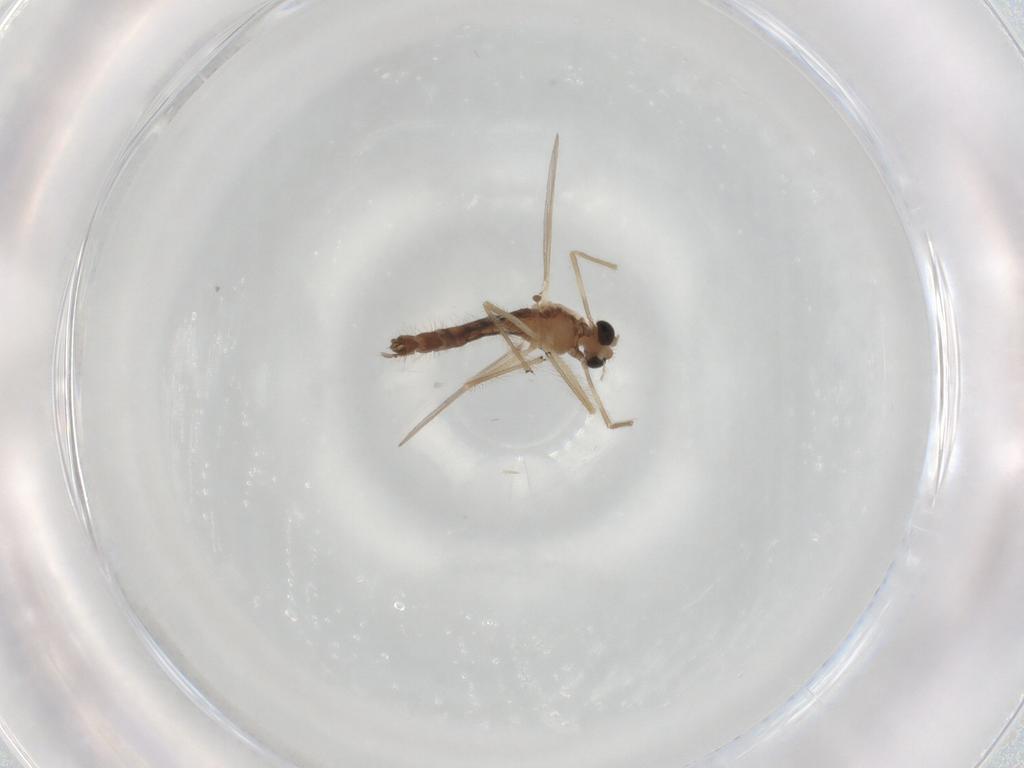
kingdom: Animalia
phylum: Arthropoda
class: Insecta
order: Diptera
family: Chironomidae
